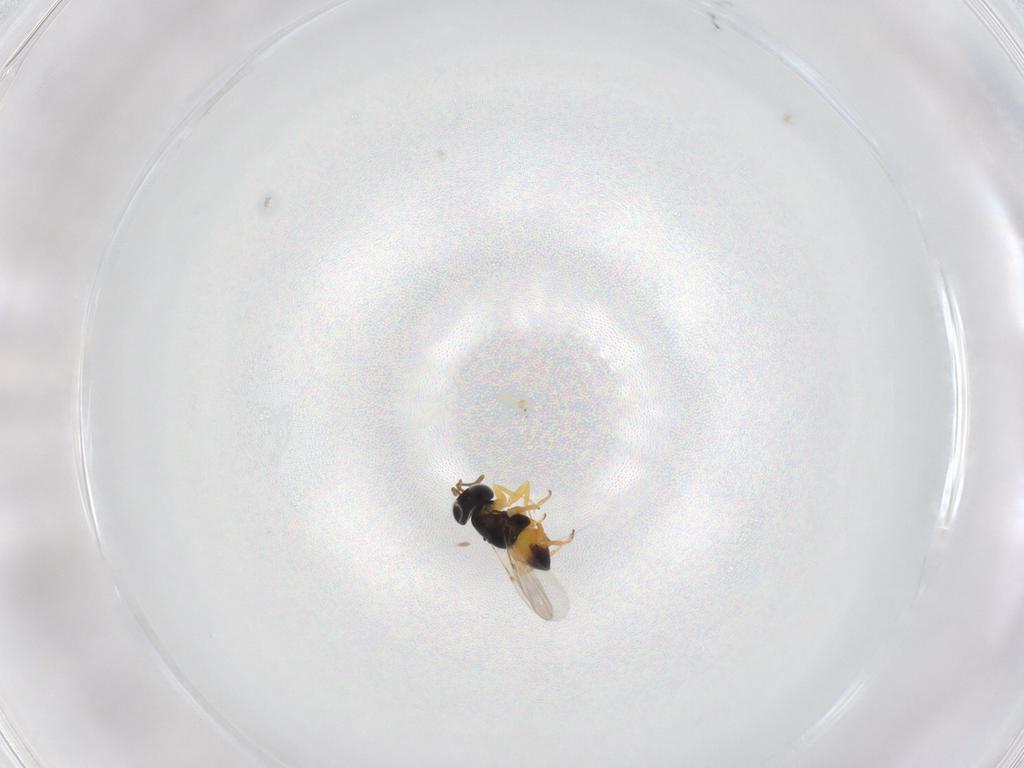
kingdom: Animalia
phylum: Arthropoda
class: Insecta
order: Hymenoptera
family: Encyrtidae
